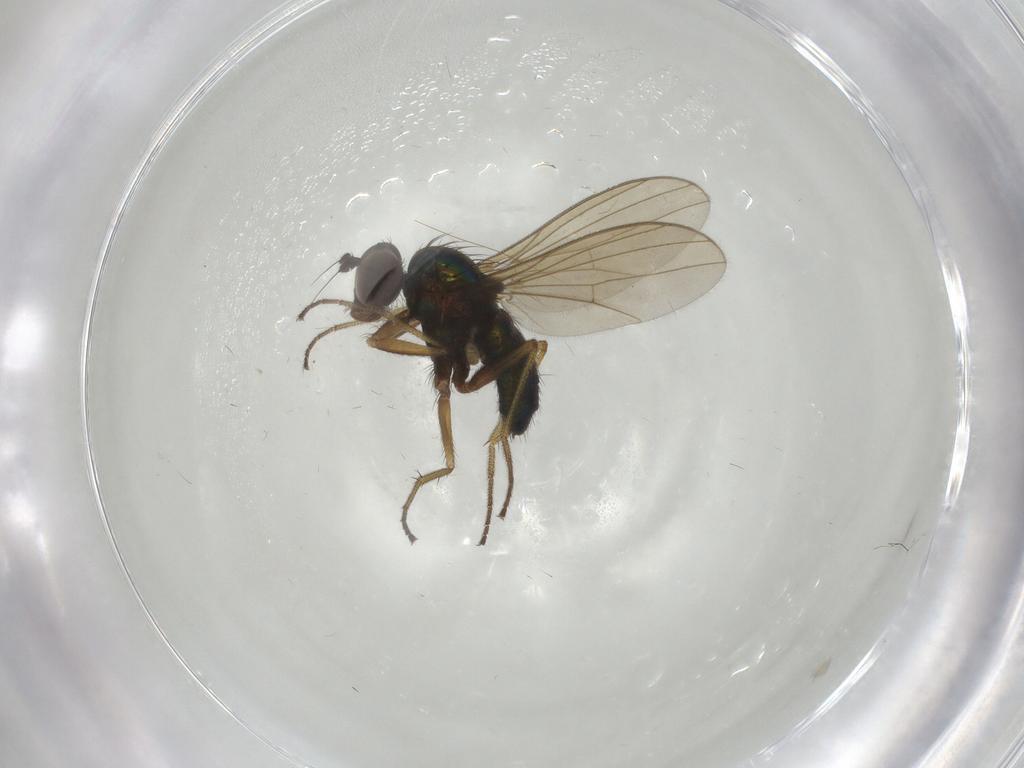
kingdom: Animalia
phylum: Arthropoda
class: Insecta
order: Diptera
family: Dolichopodidae
